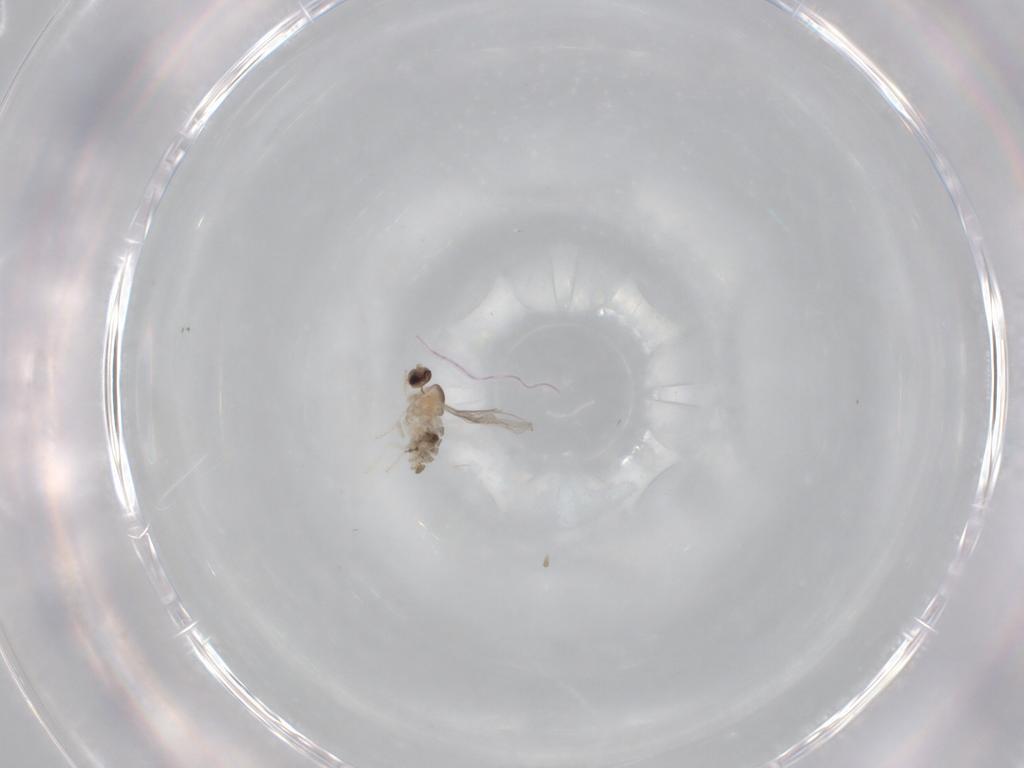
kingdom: Animalia
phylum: Arthropoda
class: Insecta
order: Diptera
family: Cecidomyiidae
